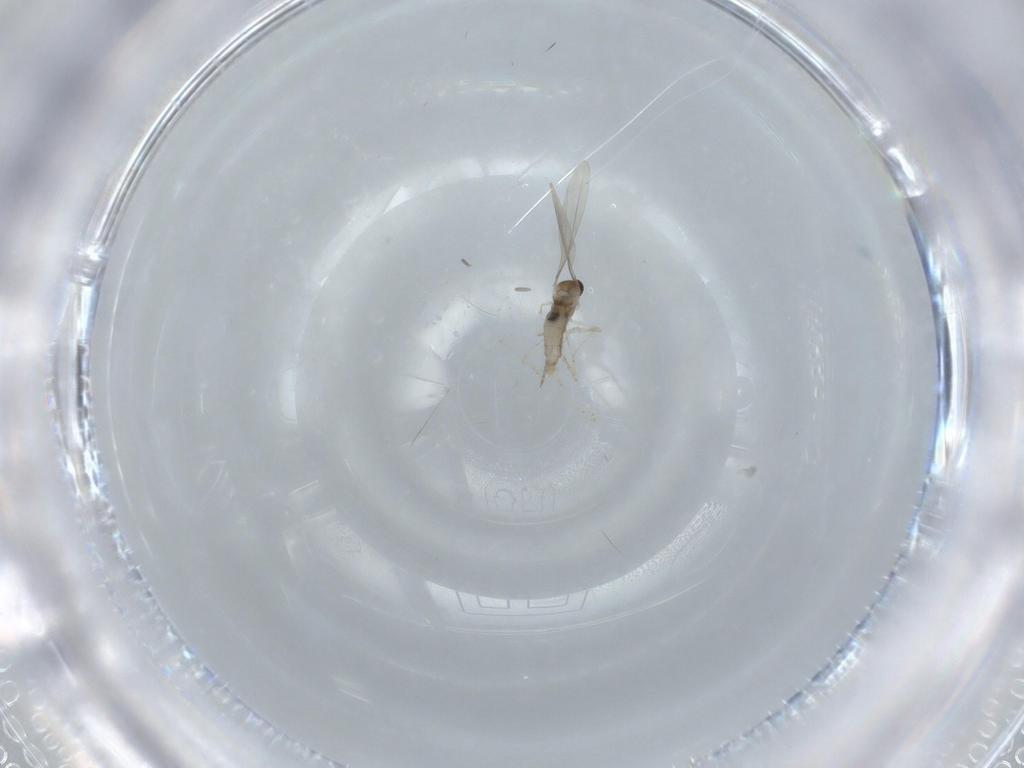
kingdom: Animalia
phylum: Arthropoda
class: Insecta
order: Diptera
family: Cecidomyiidae
